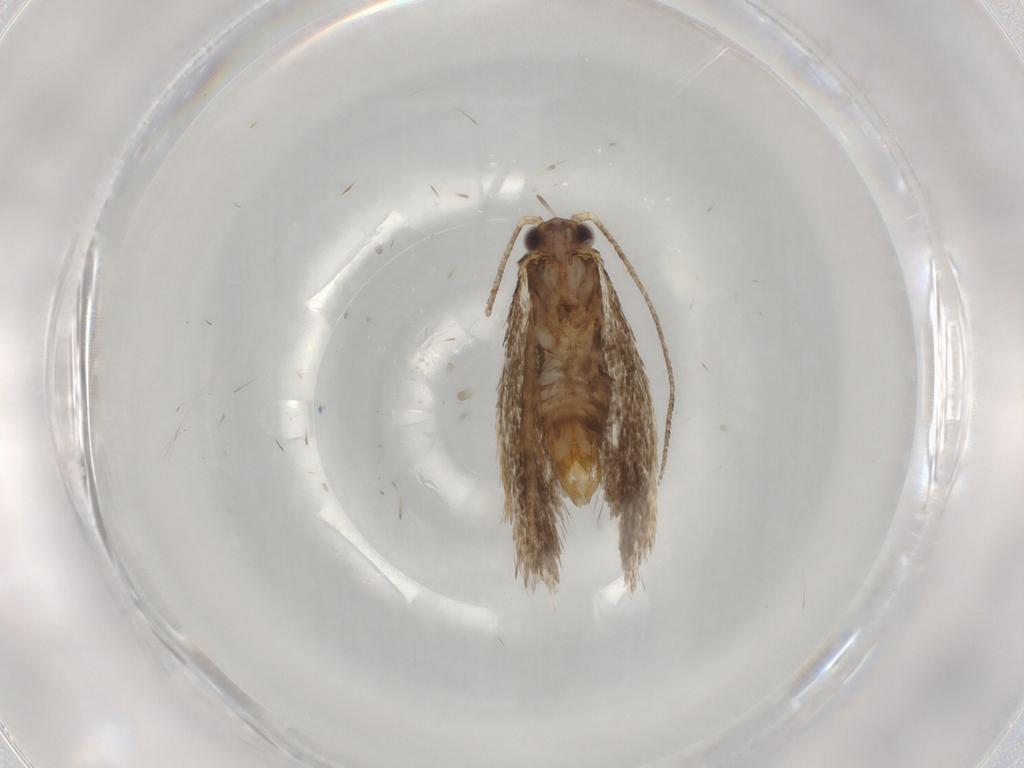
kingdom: Animalia
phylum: Arthropoda
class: Insecta
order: Lepidoptera
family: Tineidae
